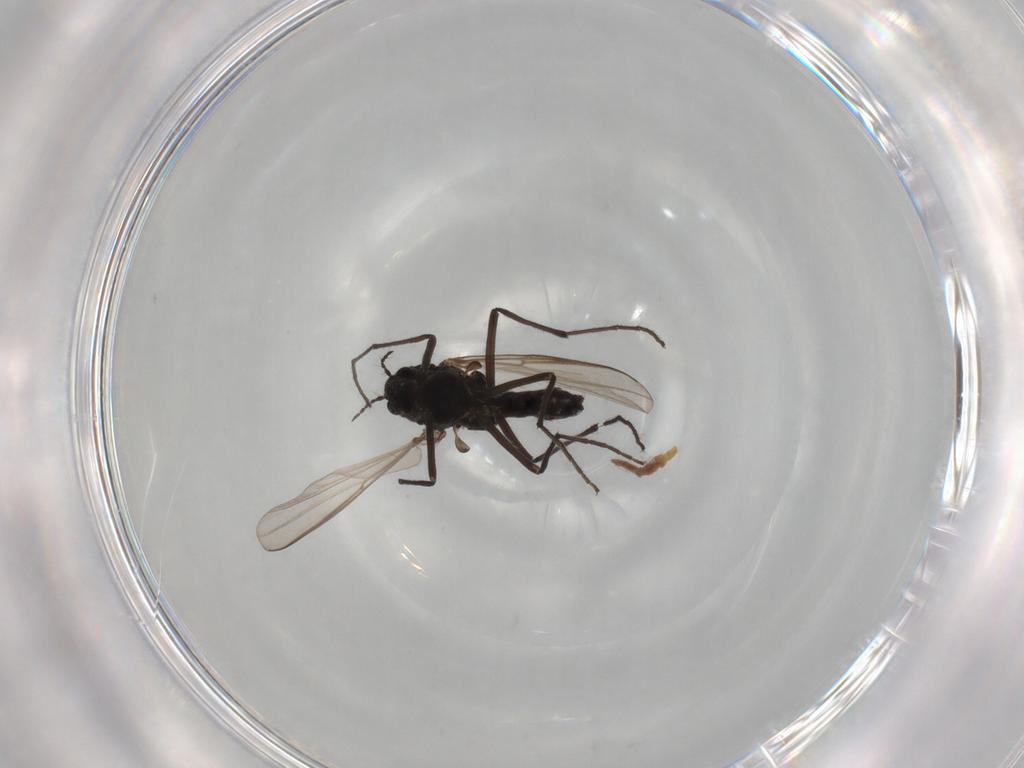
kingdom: Animalia
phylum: Arthropoda
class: Insecta
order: Diptera
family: Chironomidae
